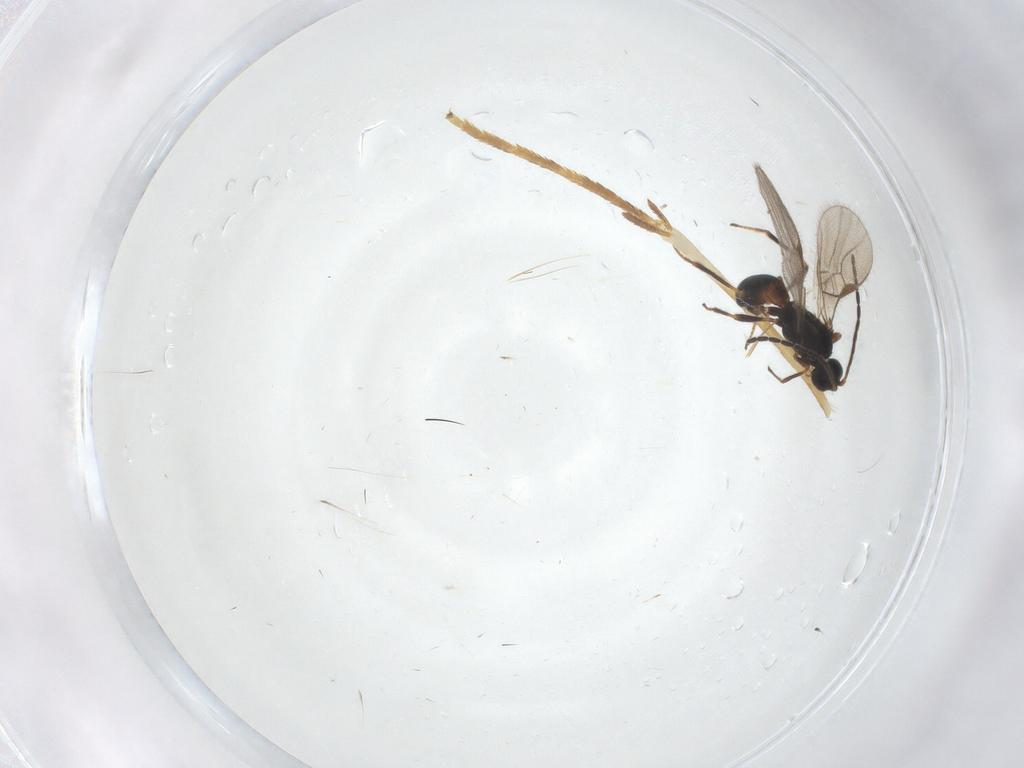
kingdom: Animalia
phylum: Arthropoda
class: Insecta
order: Hymenoptera
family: Braconidae
